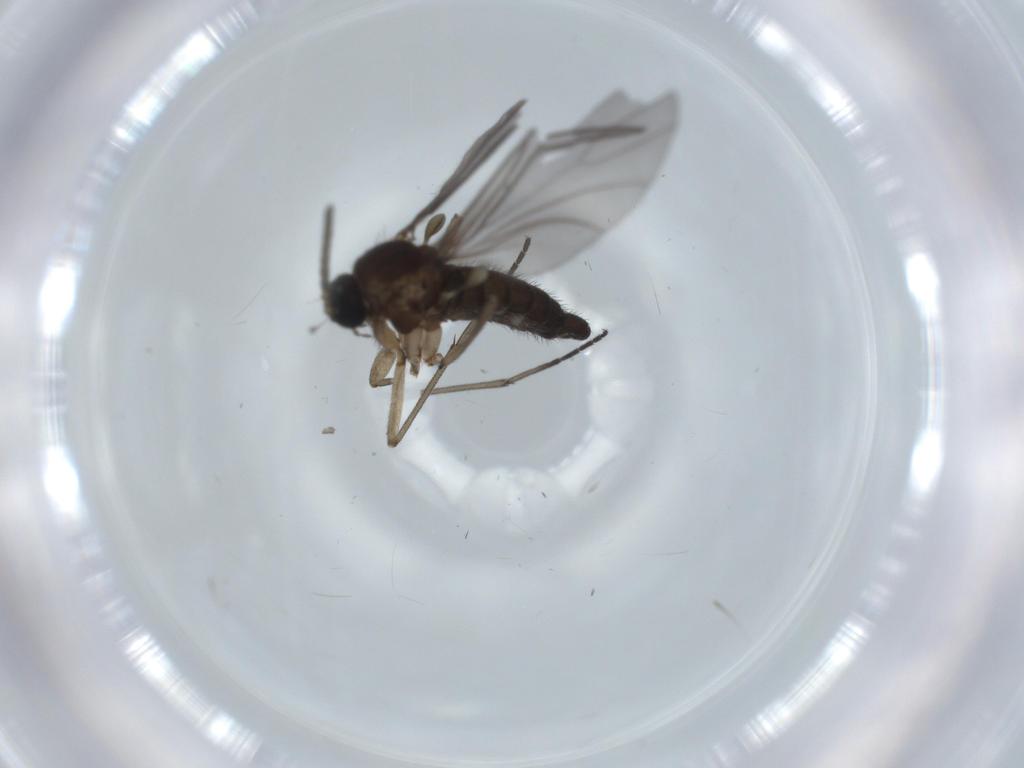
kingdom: Animalia
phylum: Arthropoda
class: Insecta
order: Diptera
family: Sciaridae
